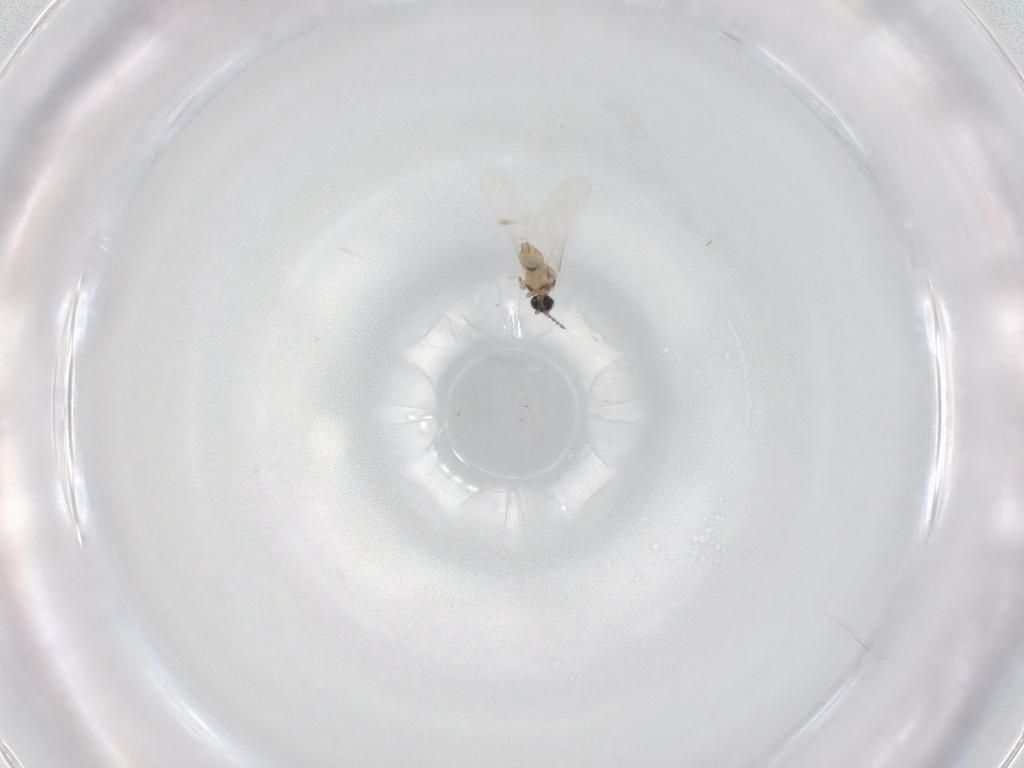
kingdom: Animalia
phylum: Arthropoda
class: Insecta
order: Diptera
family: Cecidomyiidae
